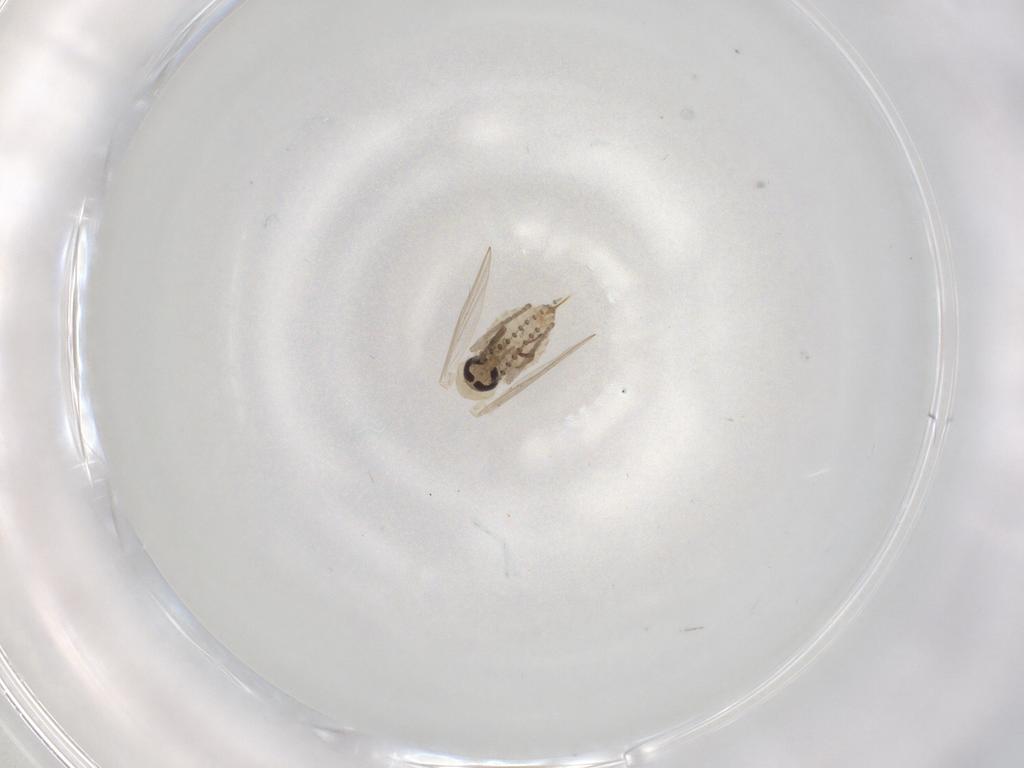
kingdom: Animalia
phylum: Arthropoda
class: Insecta
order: Diptera
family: Psychodidae
